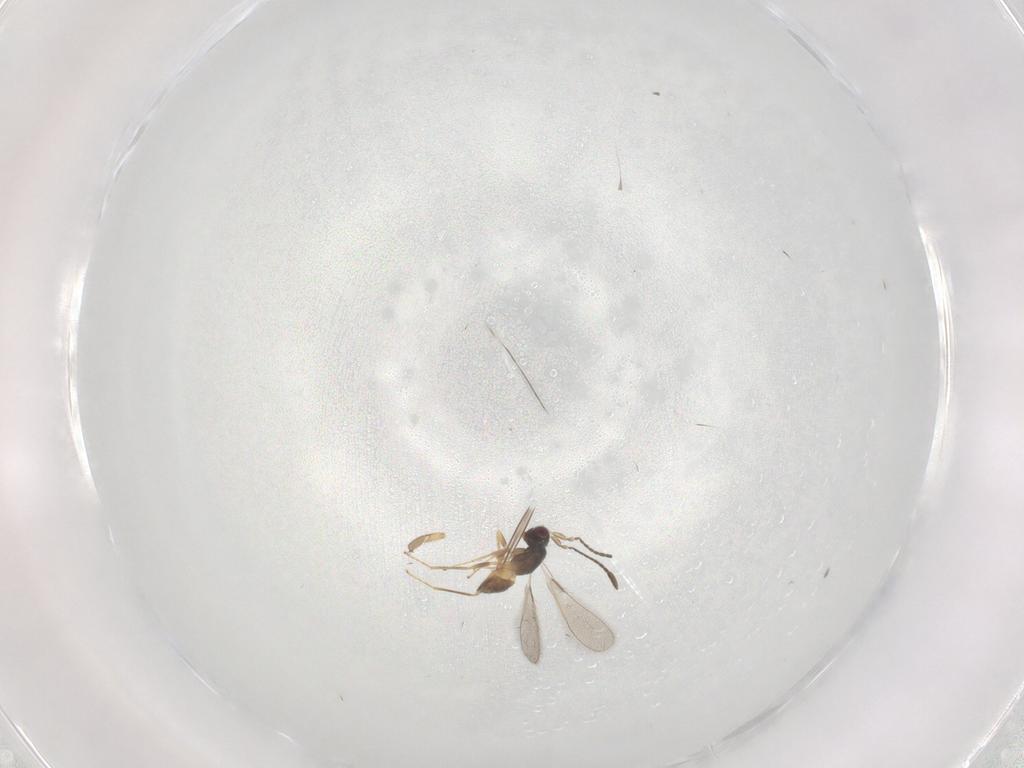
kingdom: Animalia
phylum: Arthropoda
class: Insecta
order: Hymenoptera
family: Mymaridae
